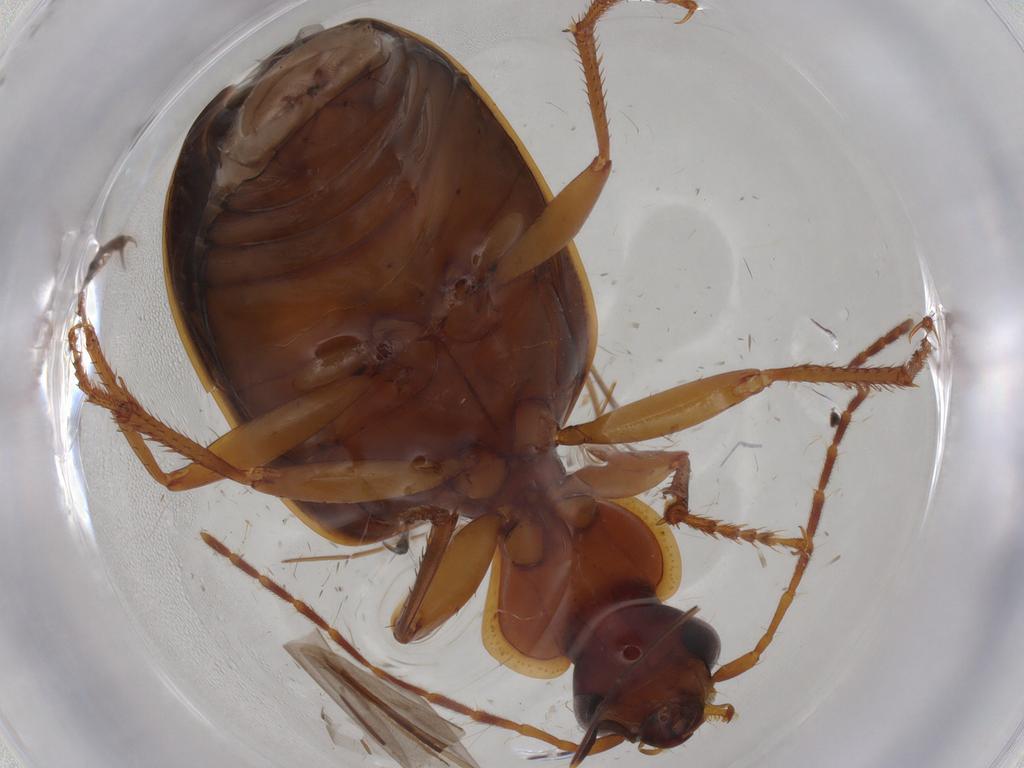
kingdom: Animalia
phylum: Arthropoda
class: Insecta
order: Coleoptera
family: Carabidae
